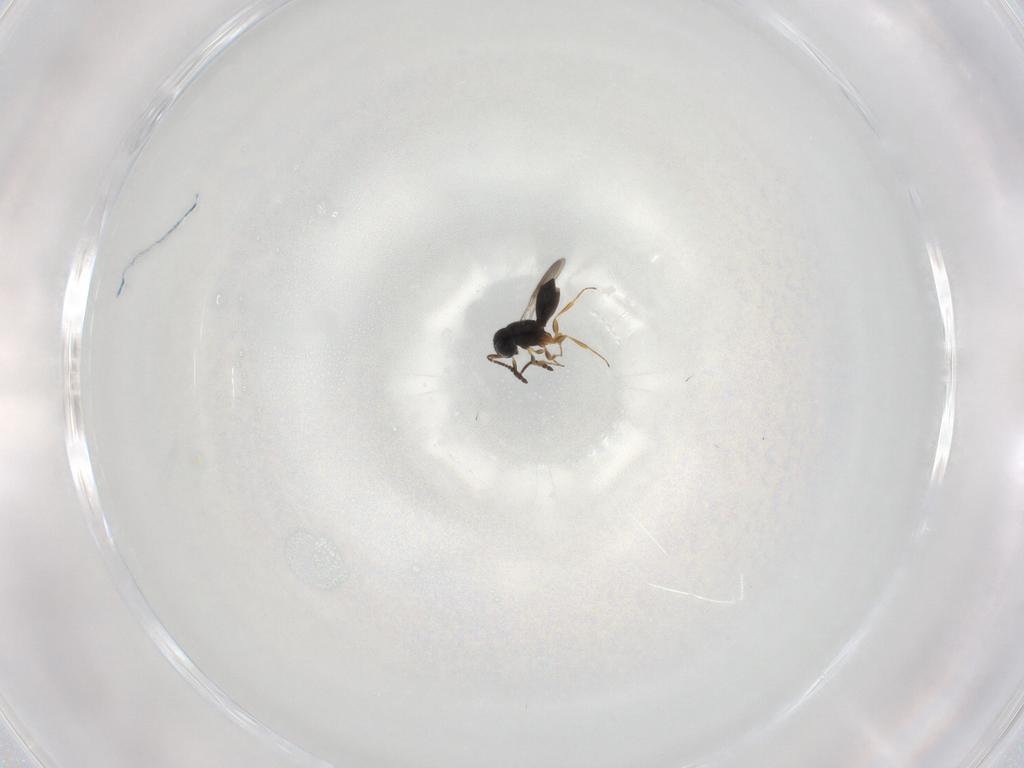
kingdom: Animalia
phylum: Arthropoda
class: Insecta
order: Hymenoptera
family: Scelionidae
